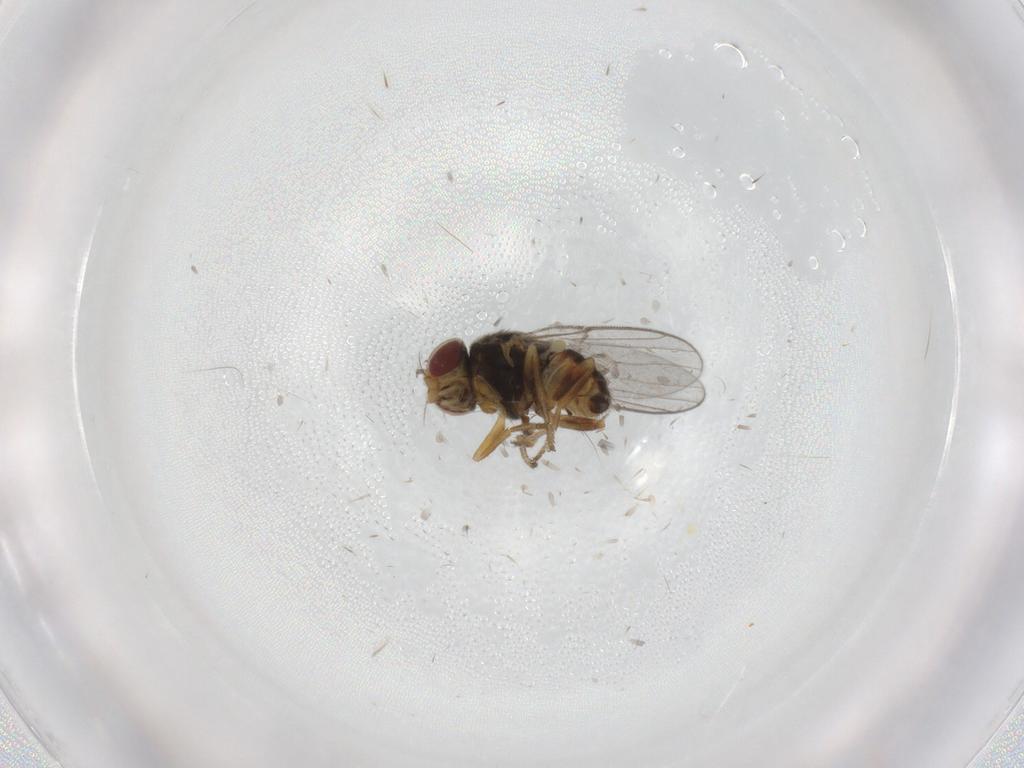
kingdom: Animalia
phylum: Arthropoda
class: Insecta
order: Diptera
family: Chloropidae
